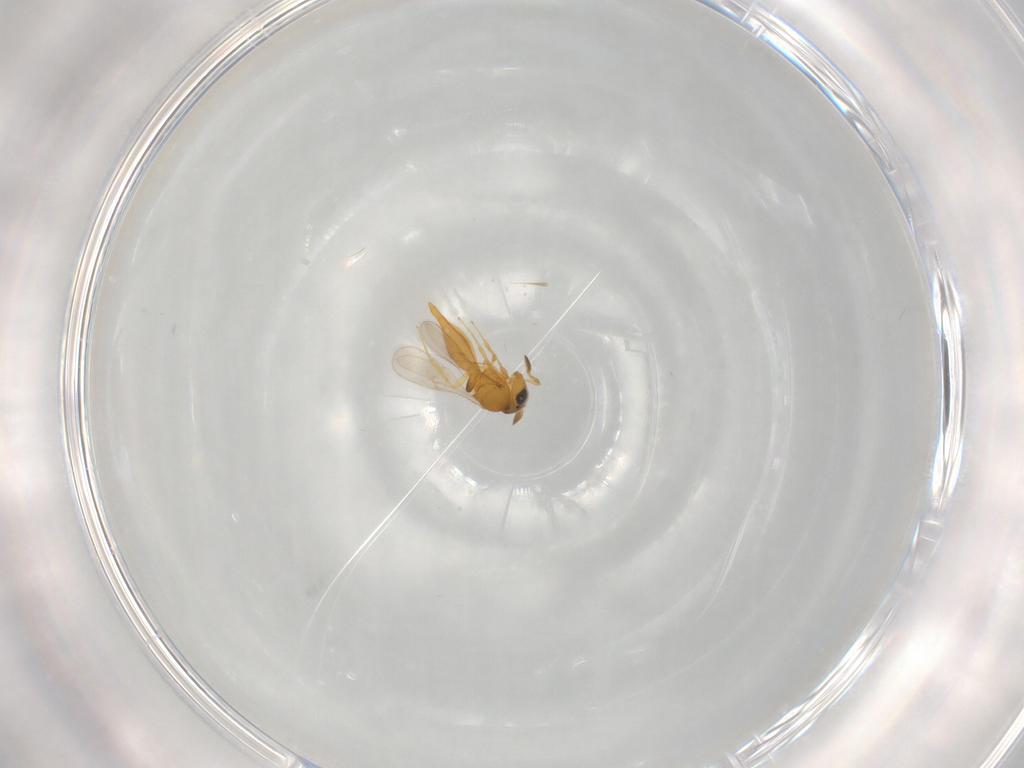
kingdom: Animalia
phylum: Arthropoda
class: Insecta
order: Hymenoptera
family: Scelionidae
